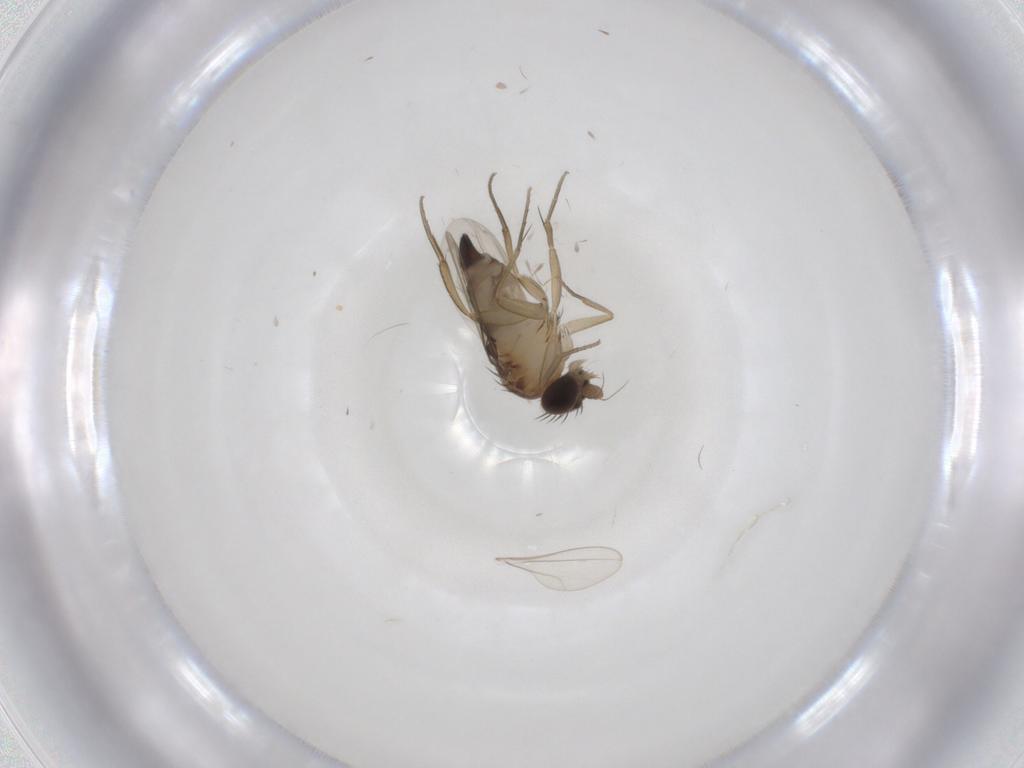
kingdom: Animalia
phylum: Arthropoda
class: Insecta
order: Diptera
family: Phoridae
